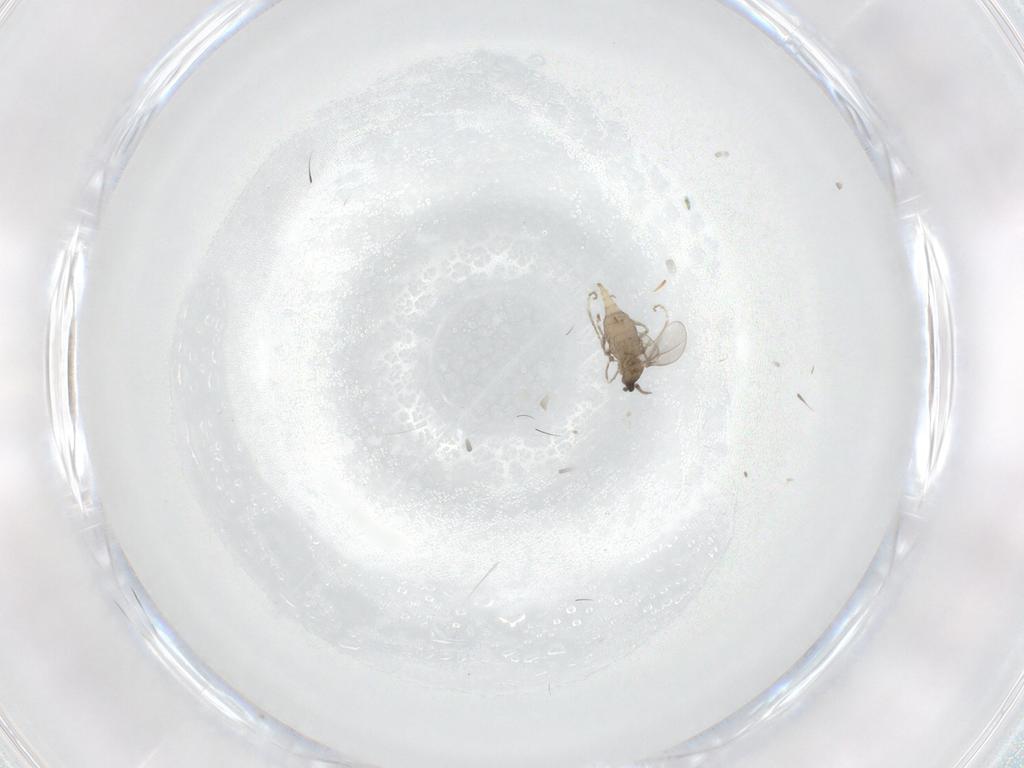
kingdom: Animalia
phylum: Arthropoda
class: Insecta
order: Diptera
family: Cecidomyiidae
